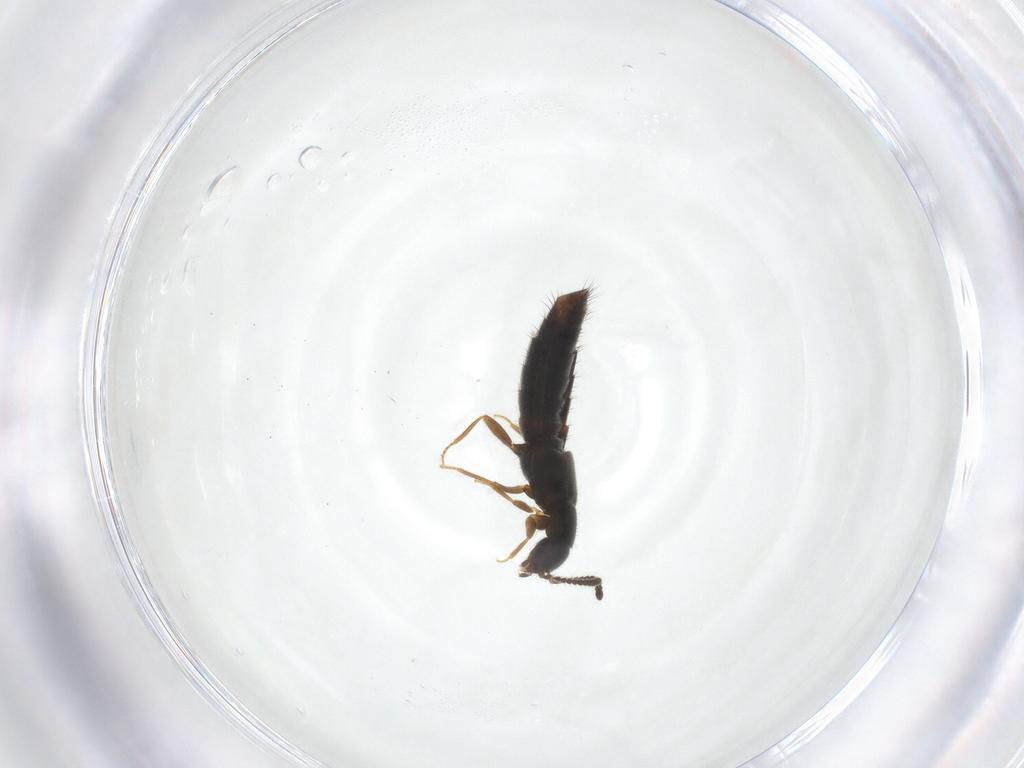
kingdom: Animalia
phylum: Arthropoda
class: Insecta
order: Coleoptera
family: Staphylinidae
